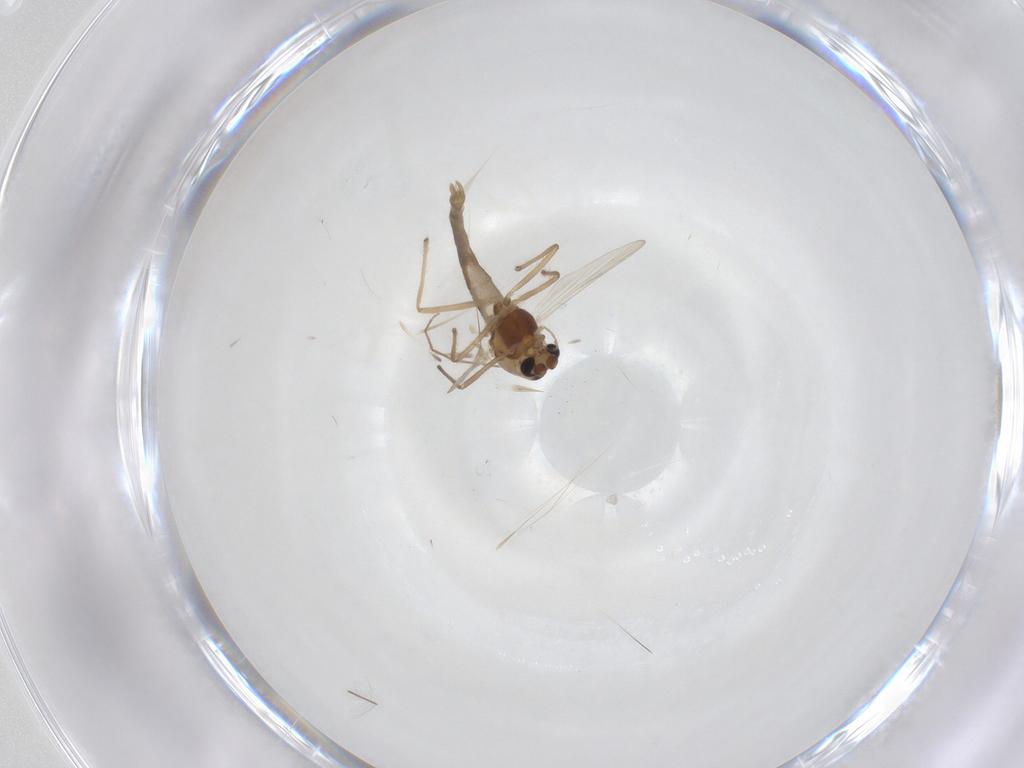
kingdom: Animalia
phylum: Arthropoda
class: Insecta
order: Diptera
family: Chironomidae
